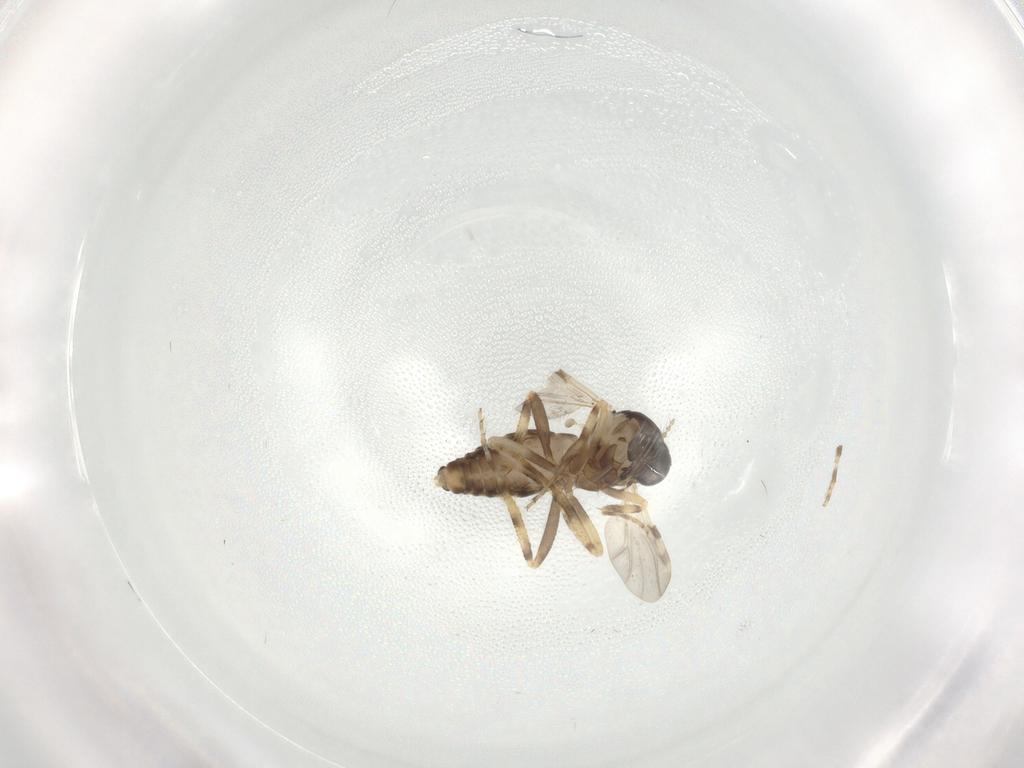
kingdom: Animalia
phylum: Arthropoda
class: Insecta
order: Diptera
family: Ceratopogonidae
